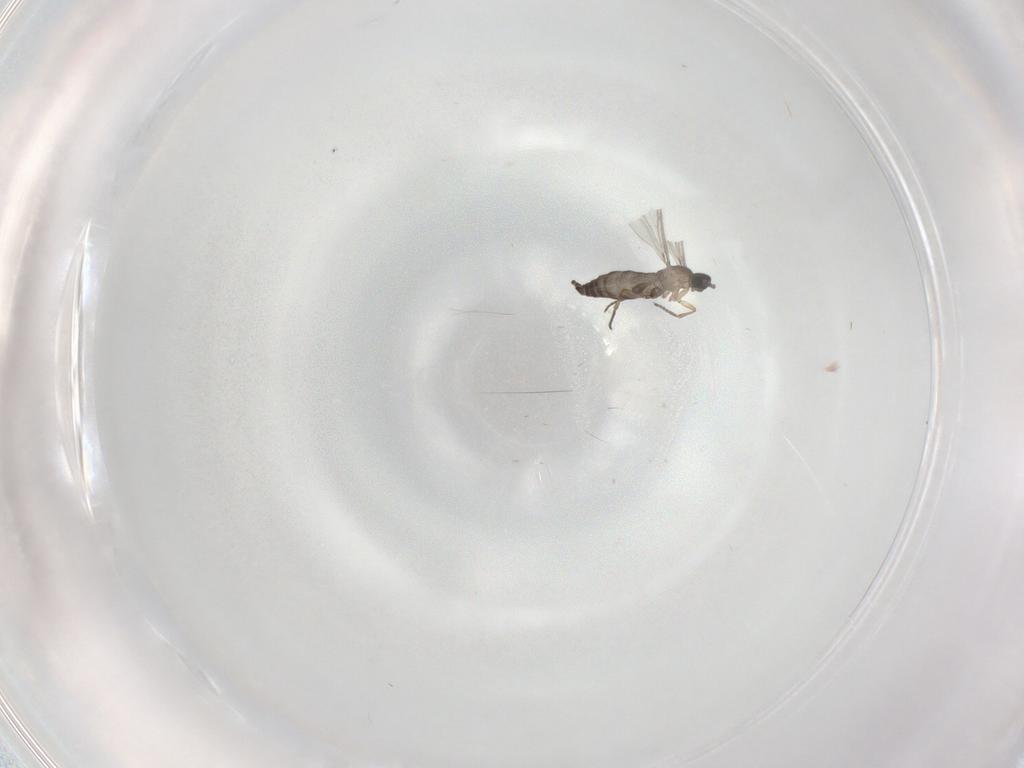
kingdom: Animalia
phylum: Arthropoda
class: Insecta
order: Diptera
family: Sciaridae
